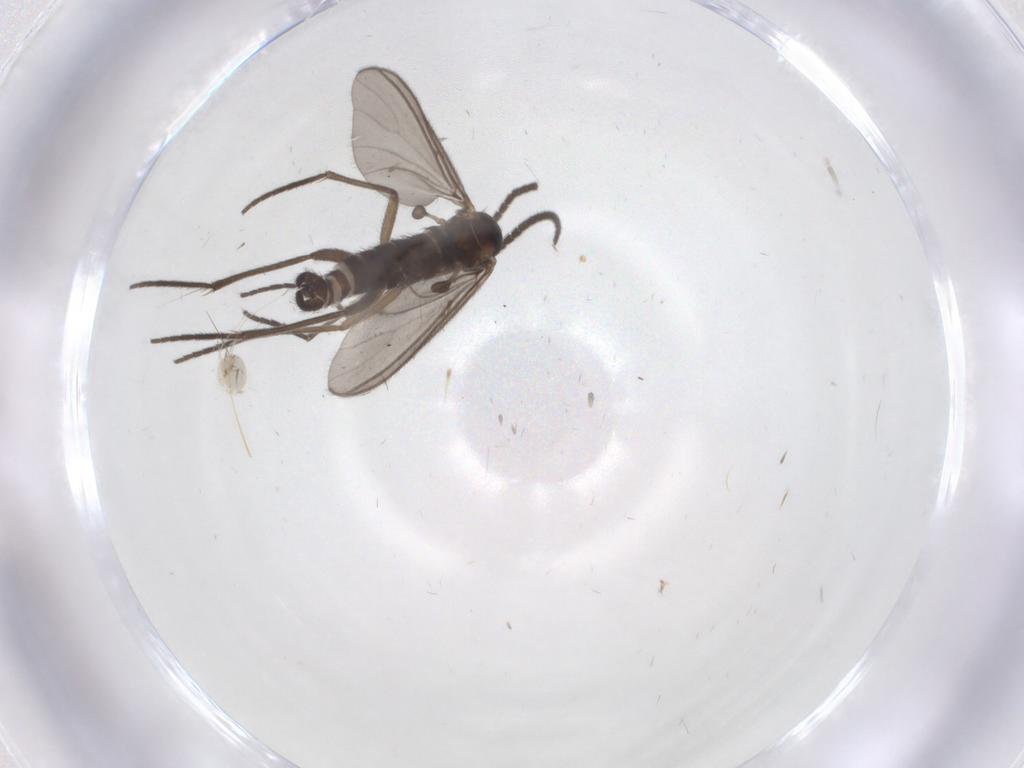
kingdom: Animalia
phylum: Arthropoda
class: Insecta
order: Diptera
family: Sciaridae
